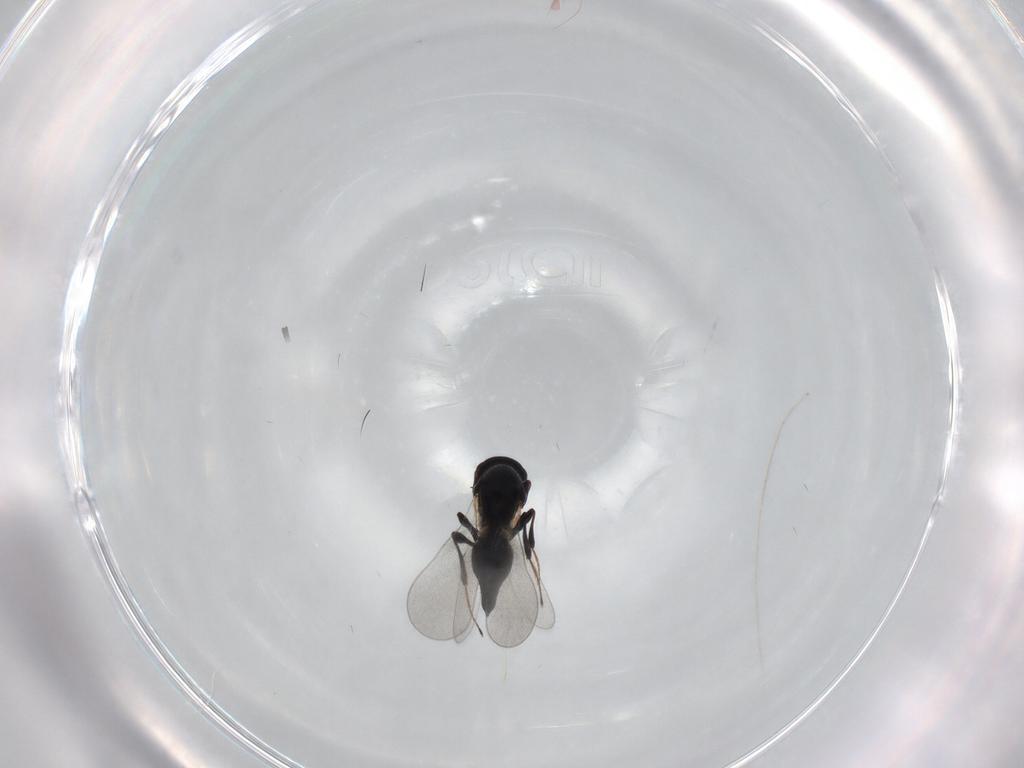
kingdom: Animalia
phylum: Arthropoda
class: Insecta
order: Hymenoptera
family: Platygastridae
